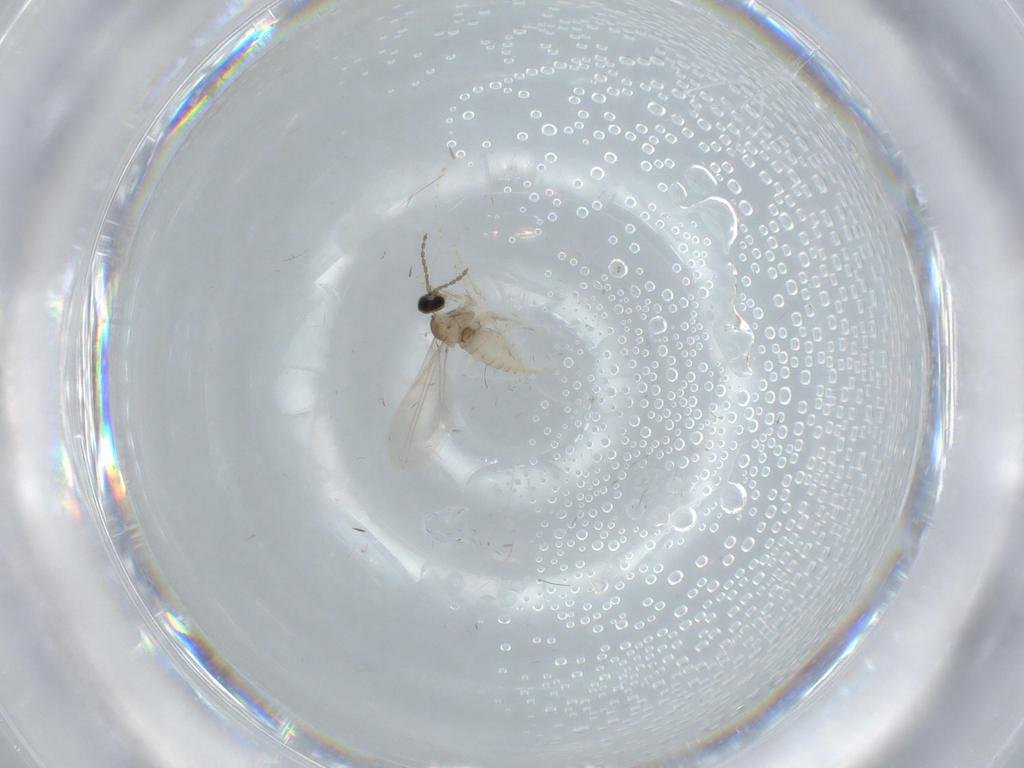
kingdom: Animalia
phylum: Arthropoda
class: Insecta
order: Diptera
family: Cecidomyiidae
